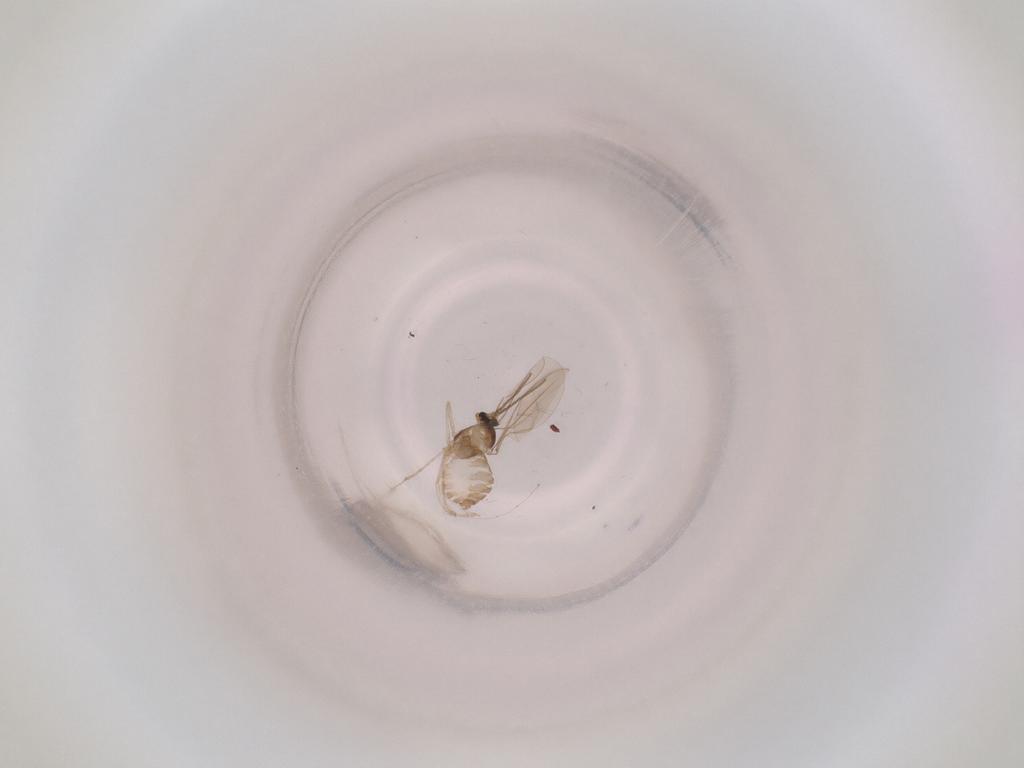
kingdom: Animalia
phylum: Arthropoda
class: Insecta
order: Diptera
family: Cecidomyiidae
